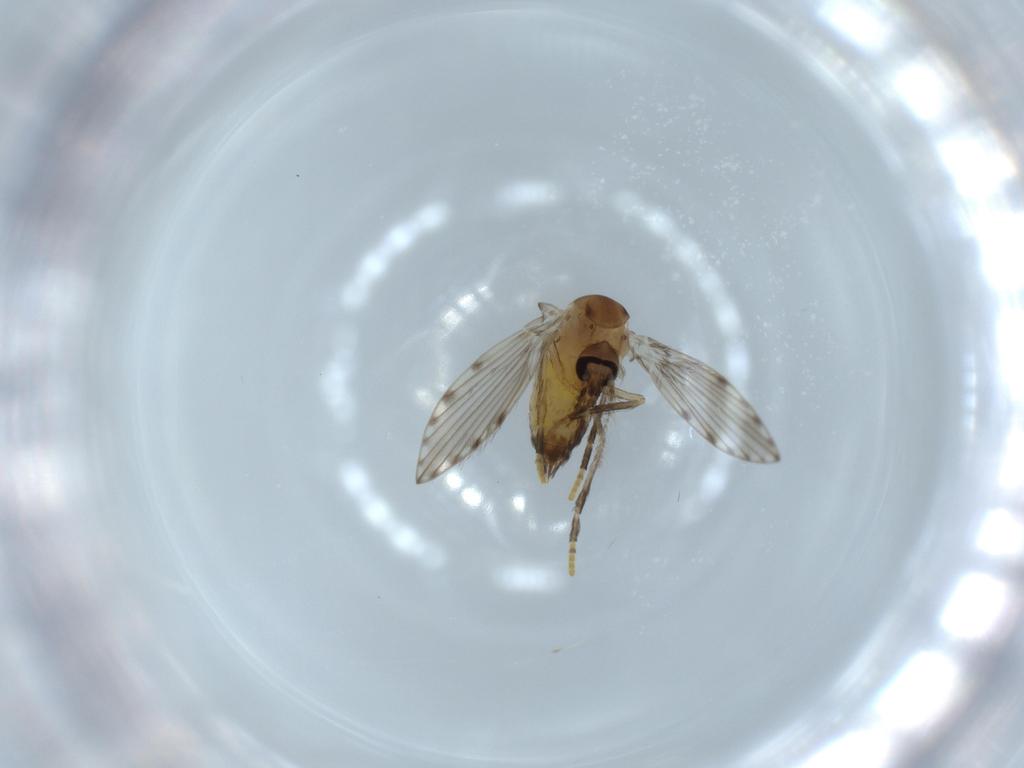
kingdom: Animalia
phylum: Arthropoda
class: Insecta
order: Diptera
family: Psychodidae
